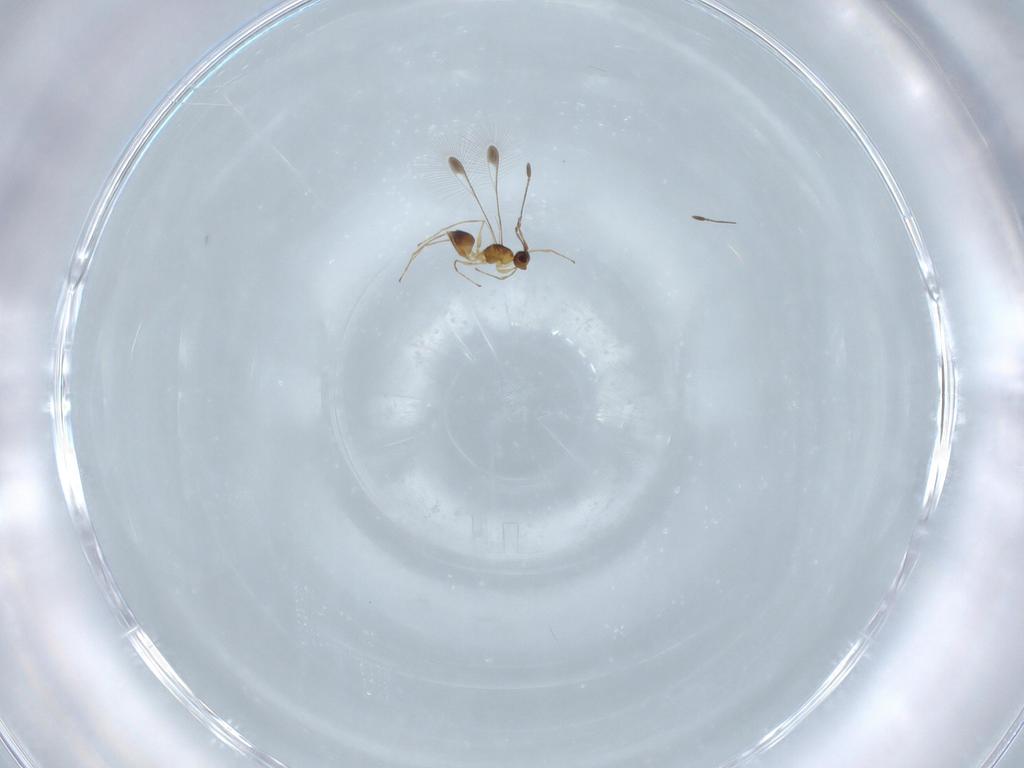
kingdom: Animalia
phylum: Arthropoda
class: Insecta
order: Hymenoptera
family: Mymaridae
